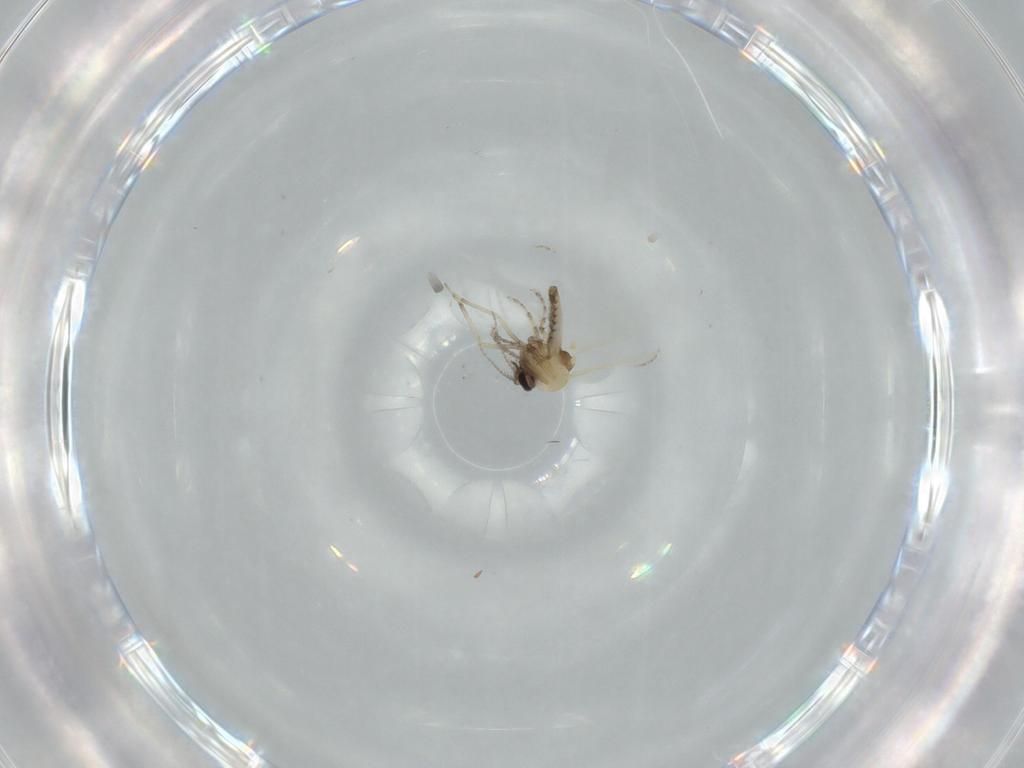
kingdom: Animalia
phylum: Arthropoda
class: Insecta
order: Diptera
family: Ceratopogonidae
